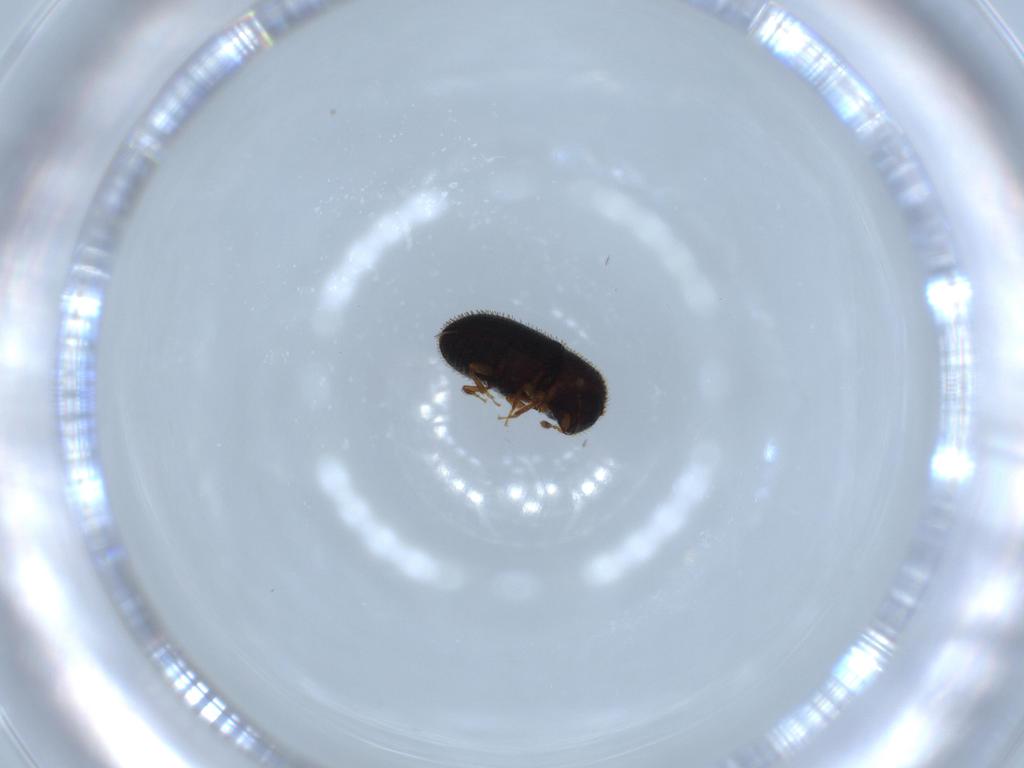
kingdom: Animalia
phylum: Arthropoda
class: Insecta
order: Coleoptera
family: Curculionidae
